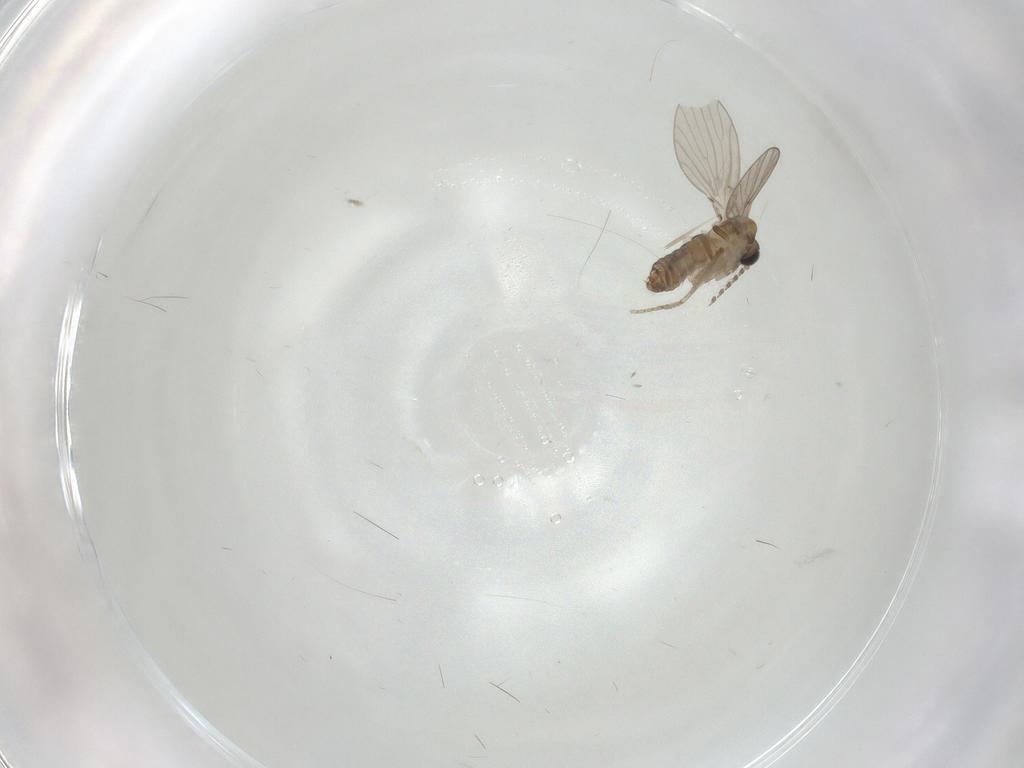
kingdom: Animalia
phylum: Arthropoda
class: Insecta
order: Diptera
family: Psychodidae
